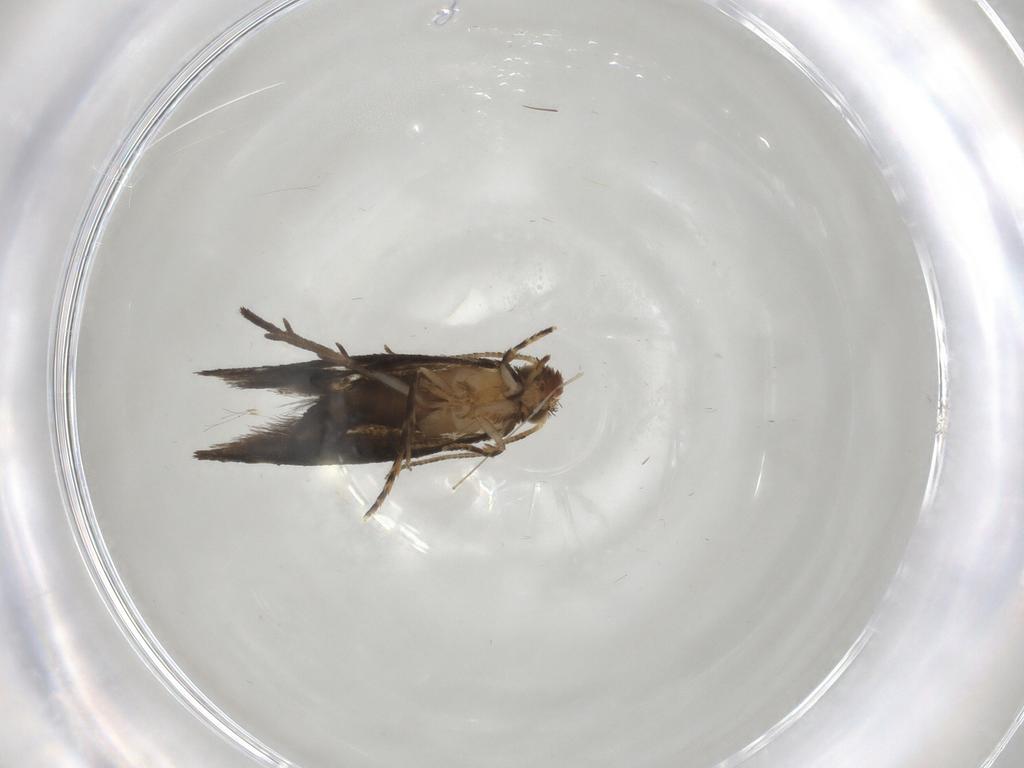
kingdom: Animalia
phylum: Arthropoda
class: Insecta
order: Lepidoptera
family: Crambidae
